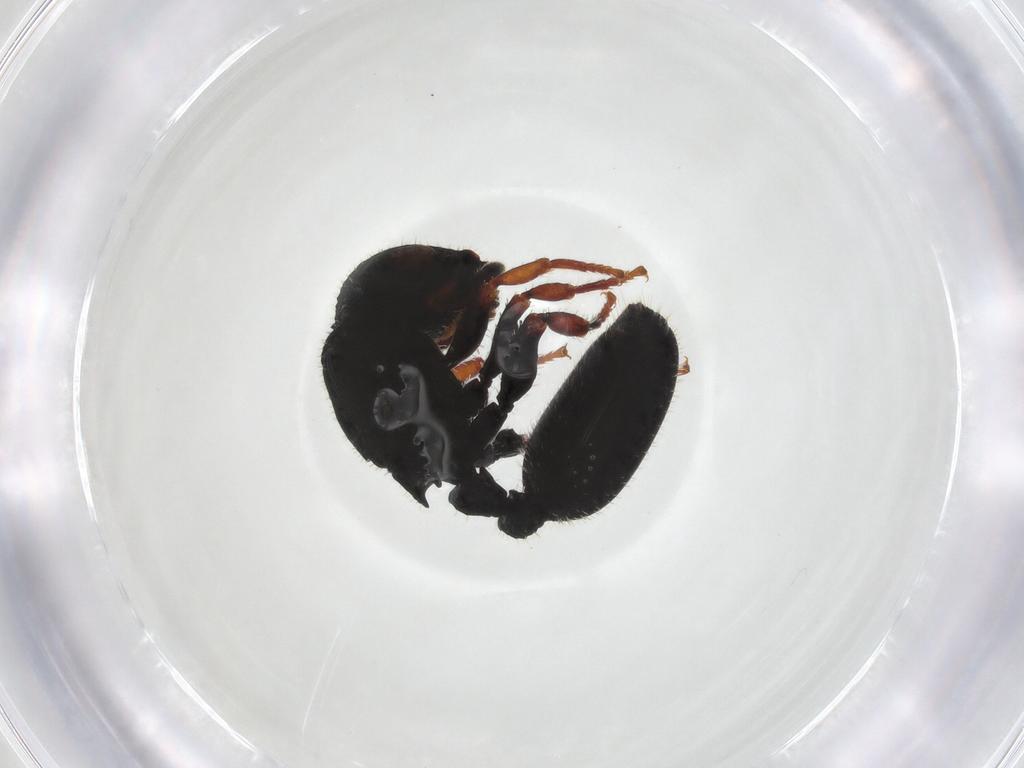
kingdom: Animalia
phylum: Arthropoda
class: Insecta
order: Hymenoptera
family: Formicidae
